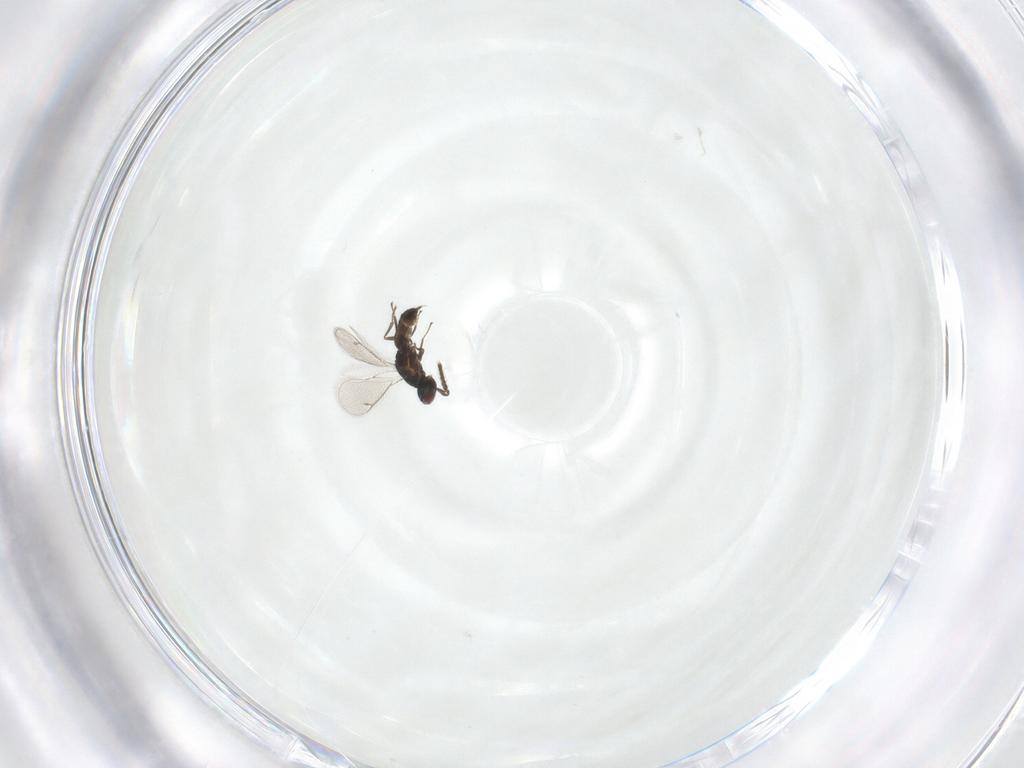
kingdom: Animalia
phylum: Arthropoda
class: Insecta
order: Hymenoptera
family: Eulophidae
